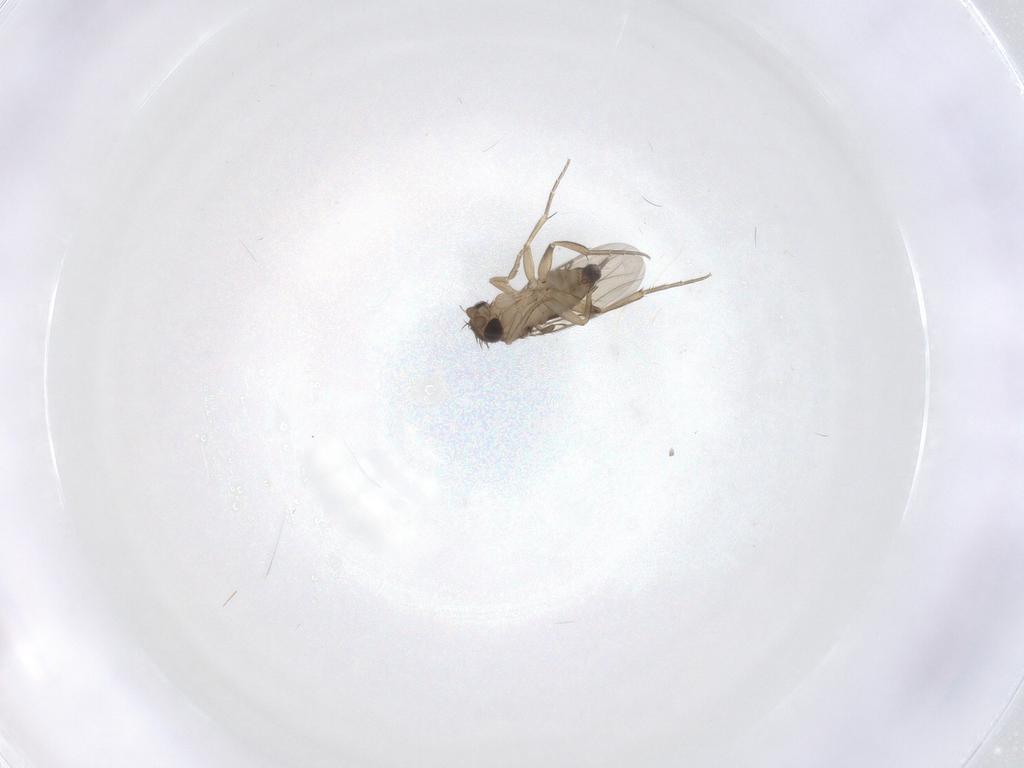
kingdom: Animalia
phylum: Arthropoda
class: Insecta
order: Diptera
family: Phoridae
